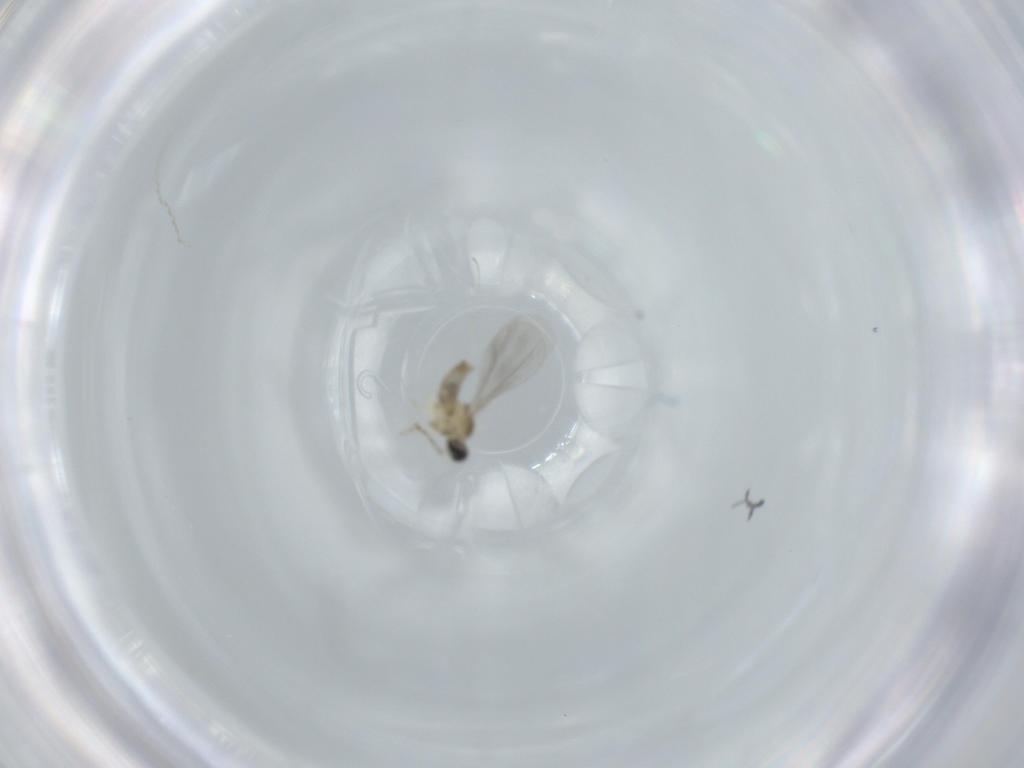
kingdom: Animalia
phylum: Arthropoda
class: Insecta
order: Diptera
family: Cecidomyiidae
